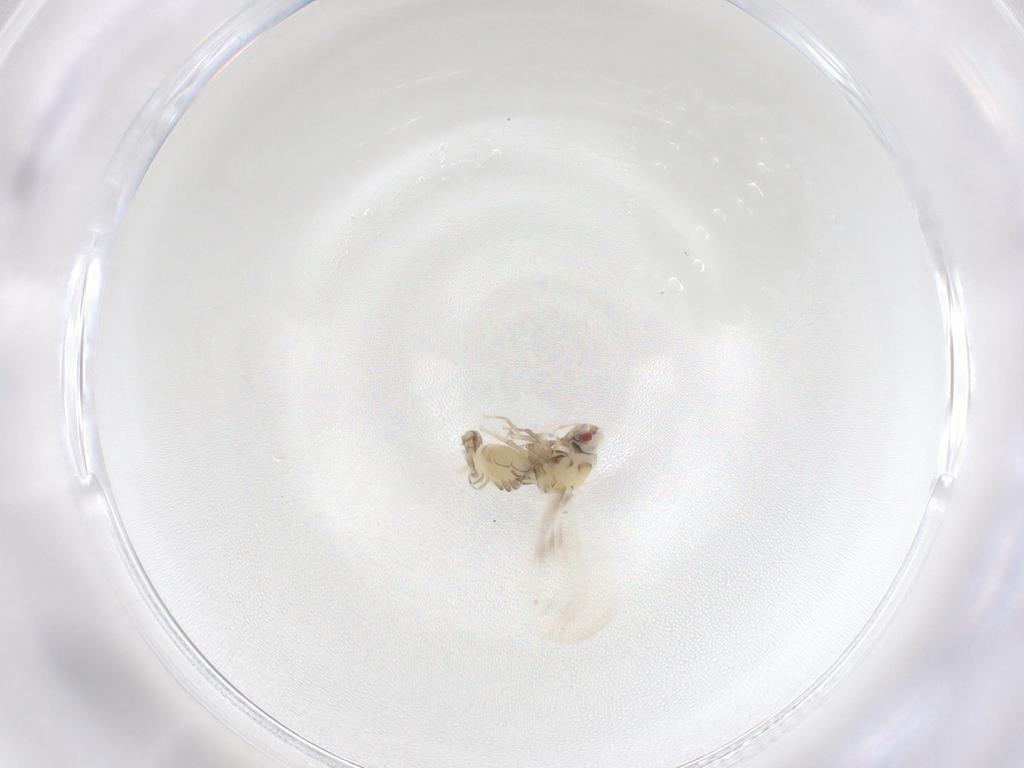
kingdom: Animalia
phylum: Arthropoda
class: Insecta
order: Hemiptera
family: Aleyrodidae
